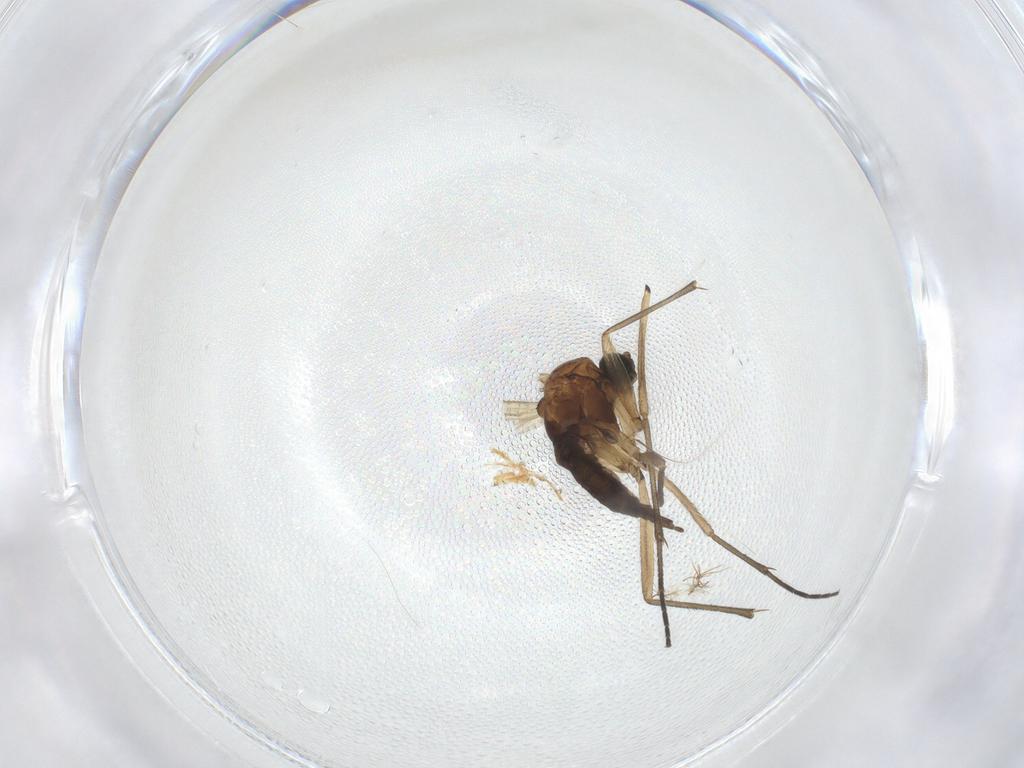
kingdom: Animalia
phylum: Arthropoda
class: Insecta
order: Diptera
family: Sciaridae
